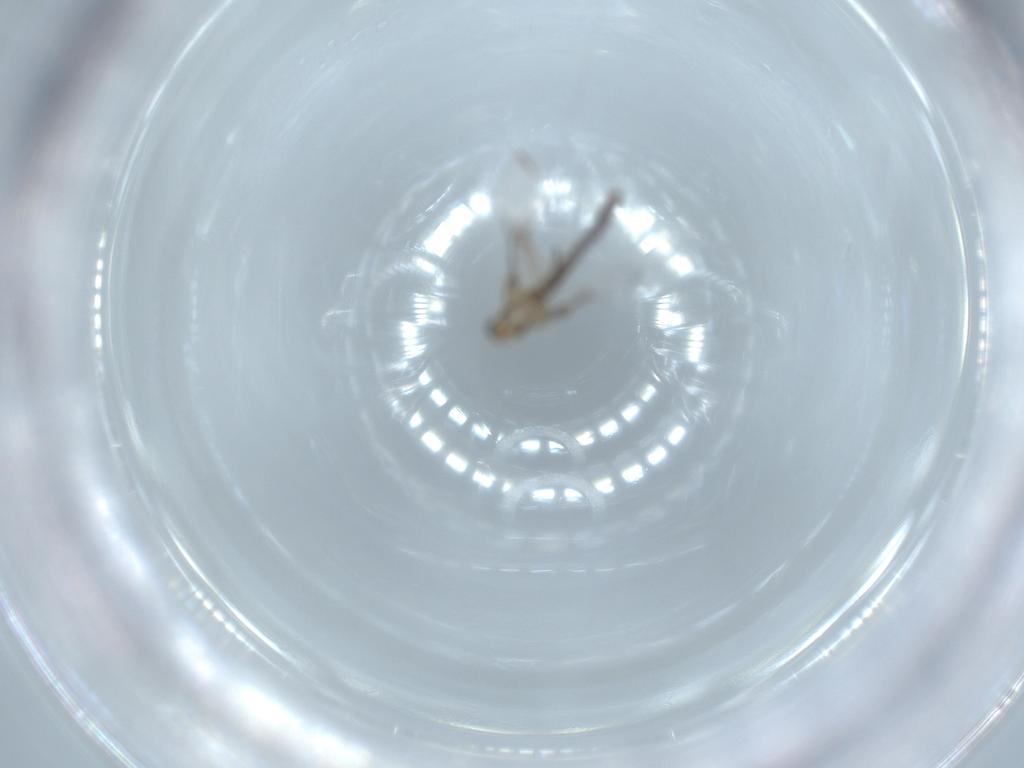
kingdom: Animalia
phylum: Arthropoda
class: Insecta
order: Diptera
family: Chironomidae
